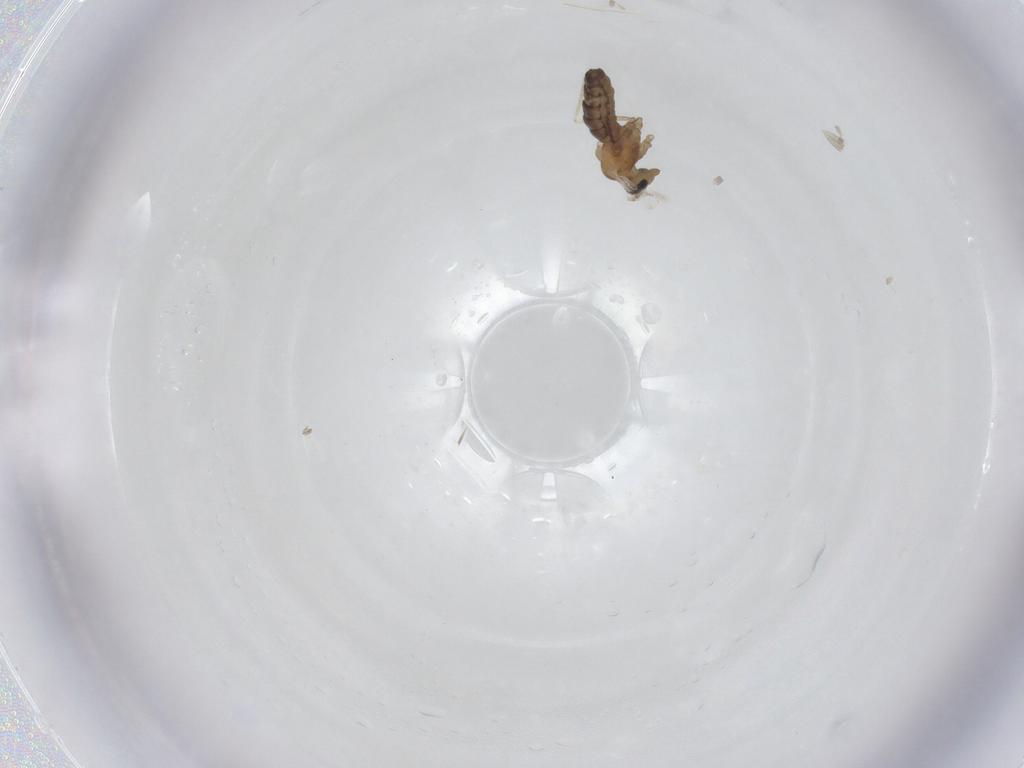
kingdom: Animalia
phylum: Arthropoda
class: Insecta
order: Diptera
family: Cecidomyiidae
